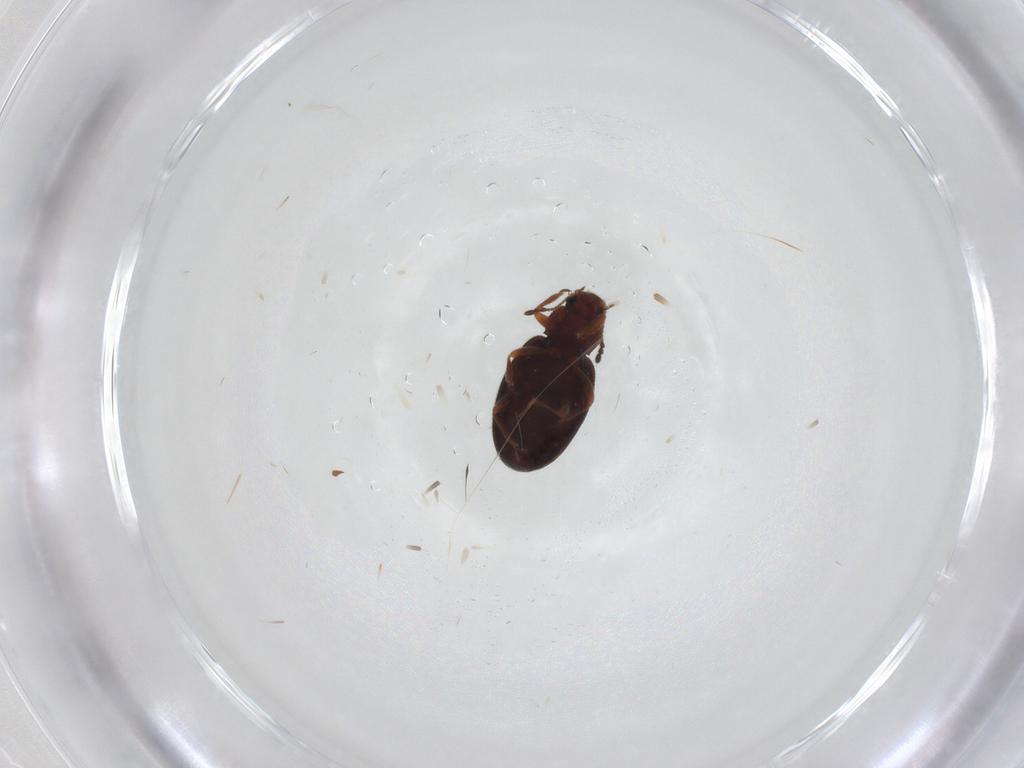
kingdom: Animalia
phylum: Arthropoda
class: Insecta
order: Coleoptera
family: Latridiidae
